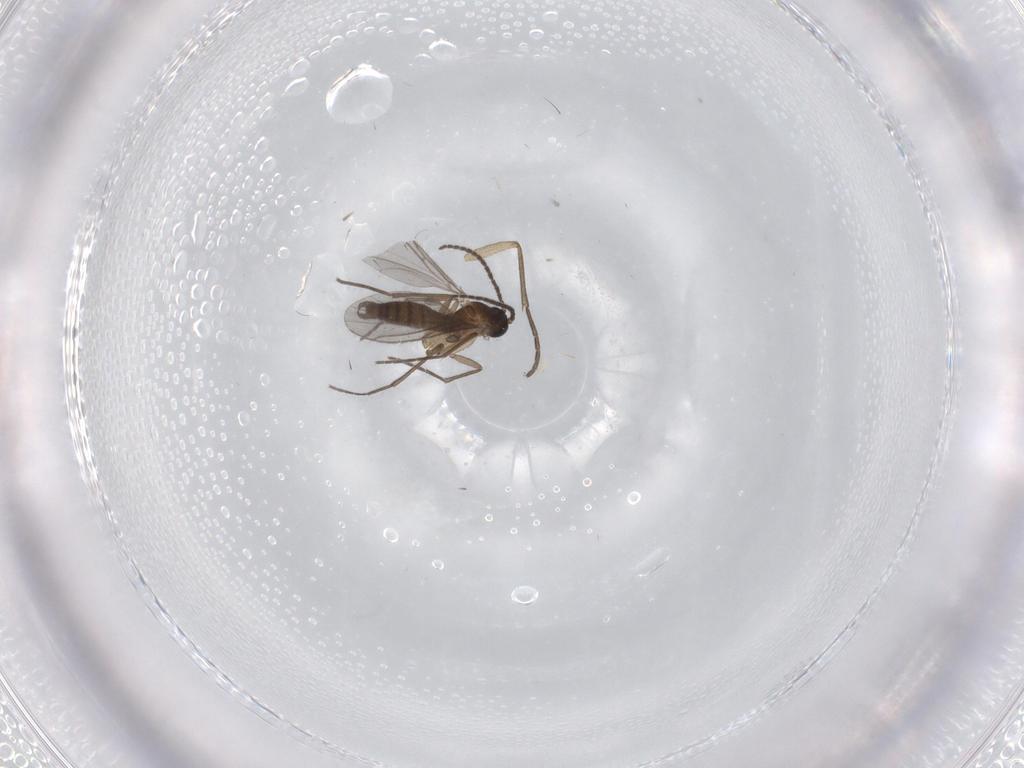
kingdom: Animalia
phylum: Arthropoda
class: Insecta
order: Diptera
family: Sciaridae
